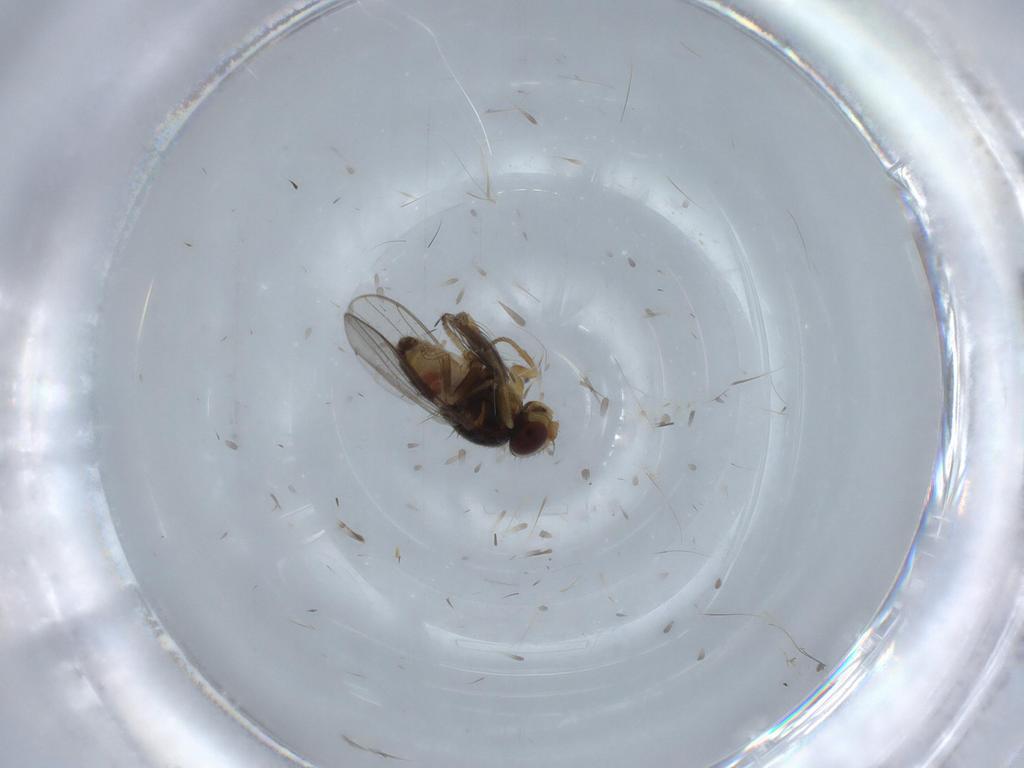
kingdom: Animalia
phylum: Arthropoda
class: Insecta
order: Diptera
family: Chloropidae
